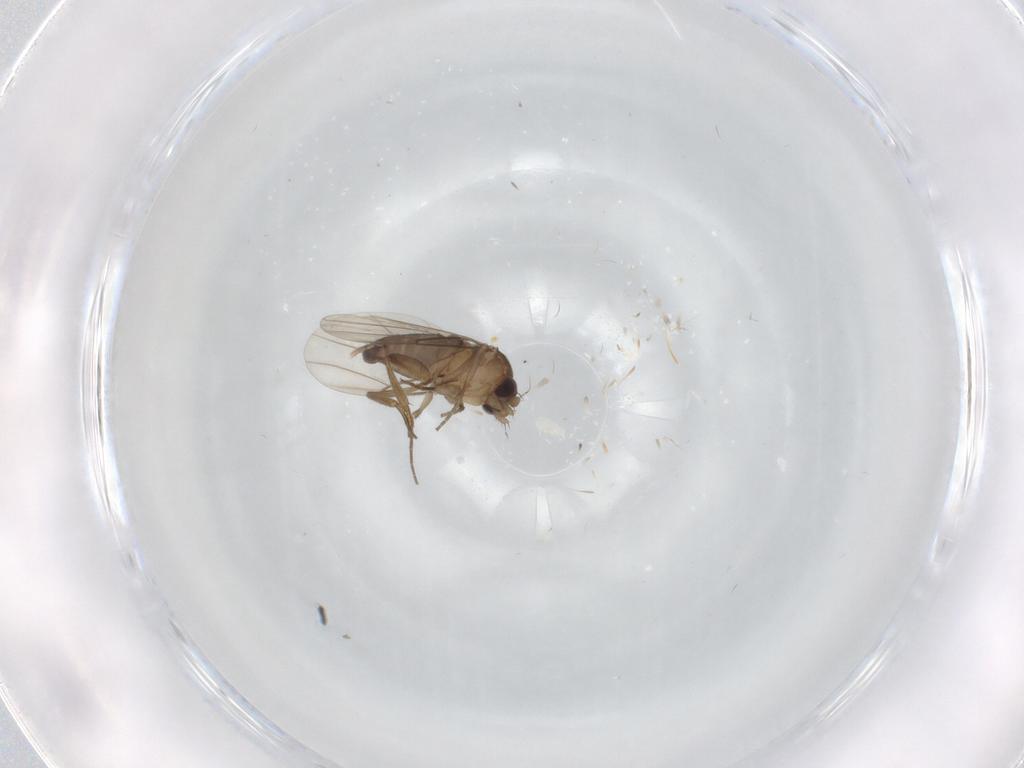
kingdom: Animalia
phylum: Arthropoda
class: Insecta
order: Diptera
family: Phoridae
